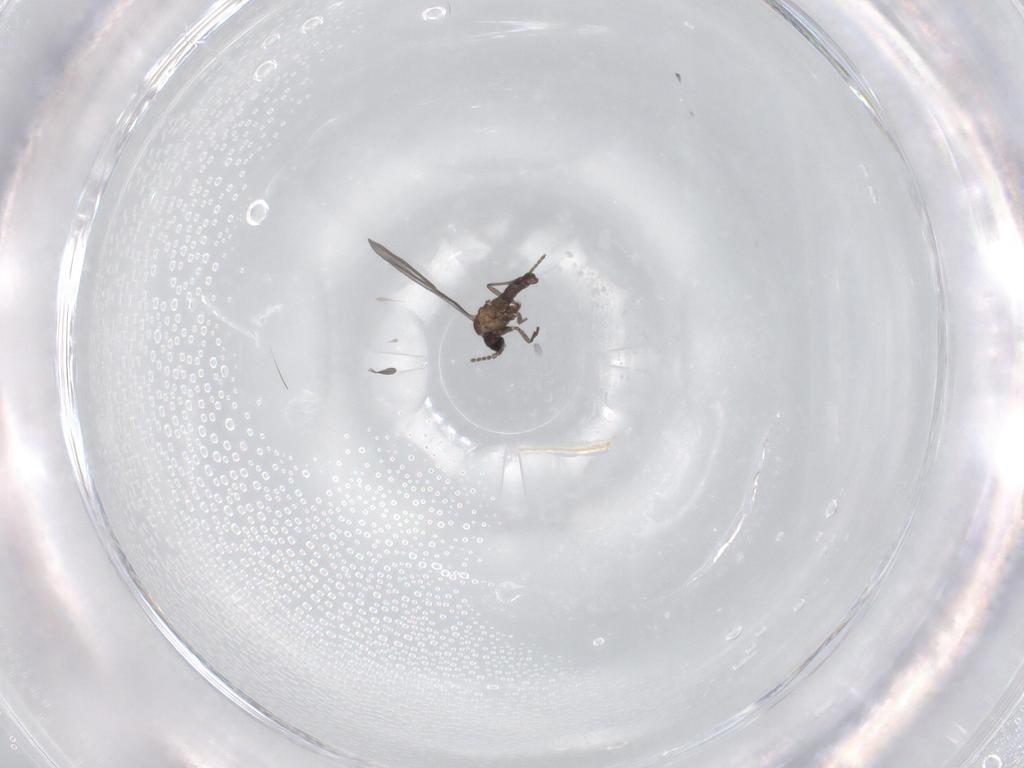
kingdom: Animalia
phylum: Arthropoda
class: Insecta
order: Diptera
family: Sciaridae
